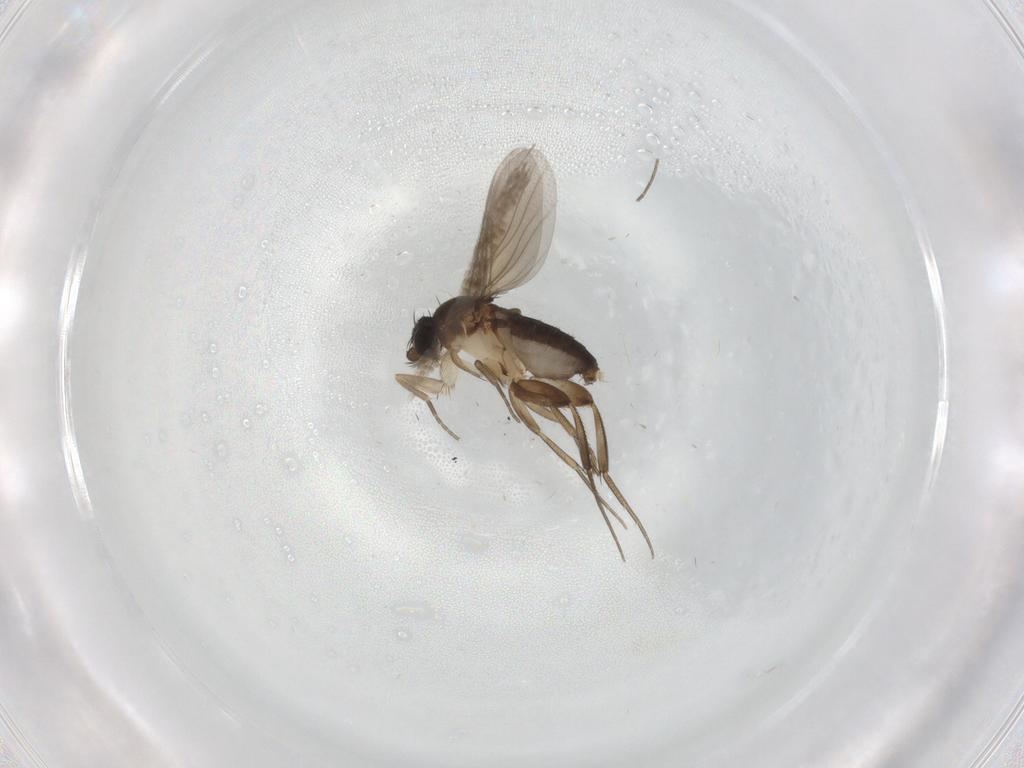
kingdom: Animalia
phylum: Arthropoda
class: Insecta
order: Diptera
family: Phoridae
